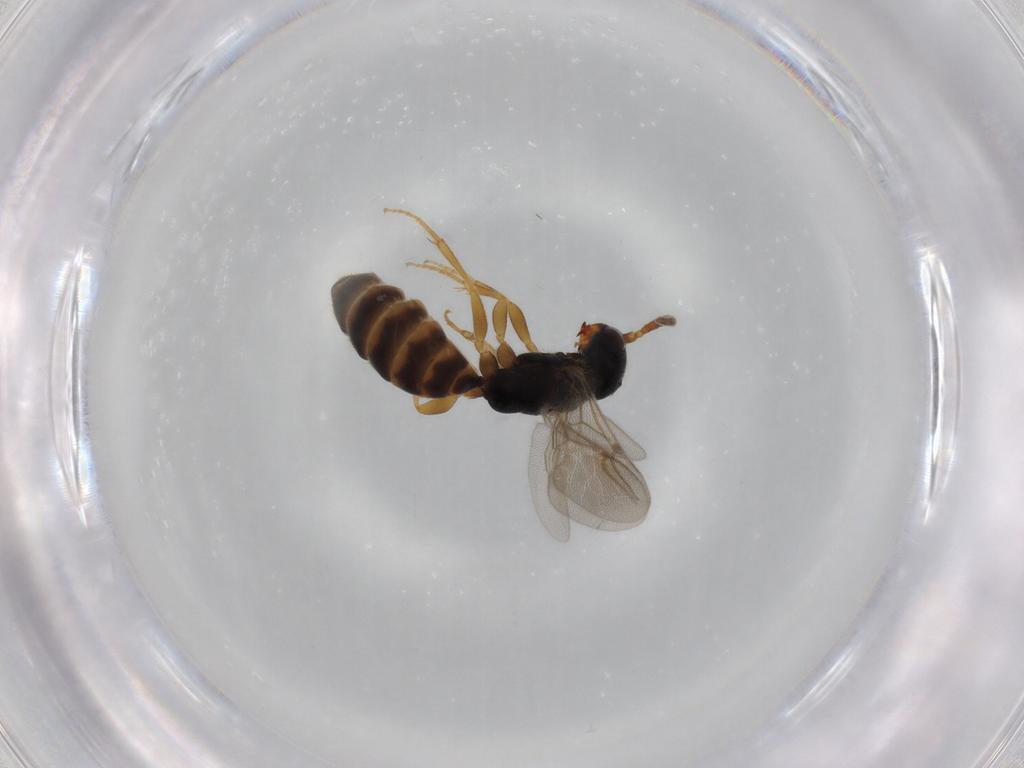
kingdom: Animalia
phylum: Arthropoda
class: Insecta
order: Hymenoptera
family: Bethylidae
